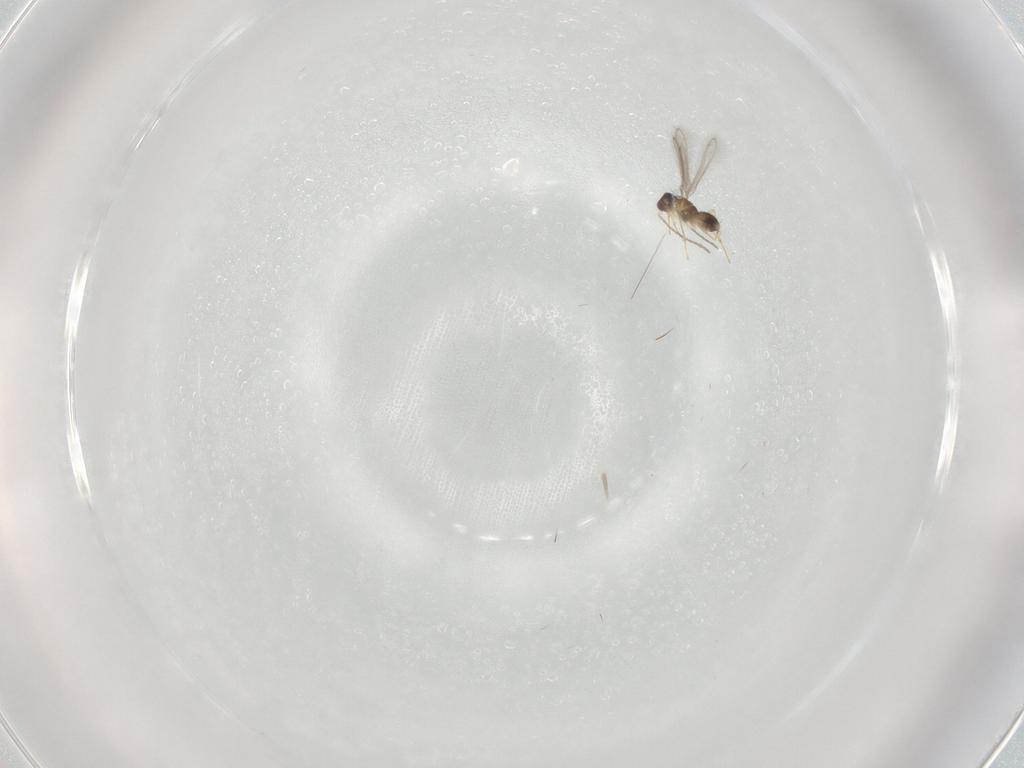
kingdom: Animalia
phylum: Arthropoda
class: Insecta
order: Hymenoptera
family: Mymaridae
